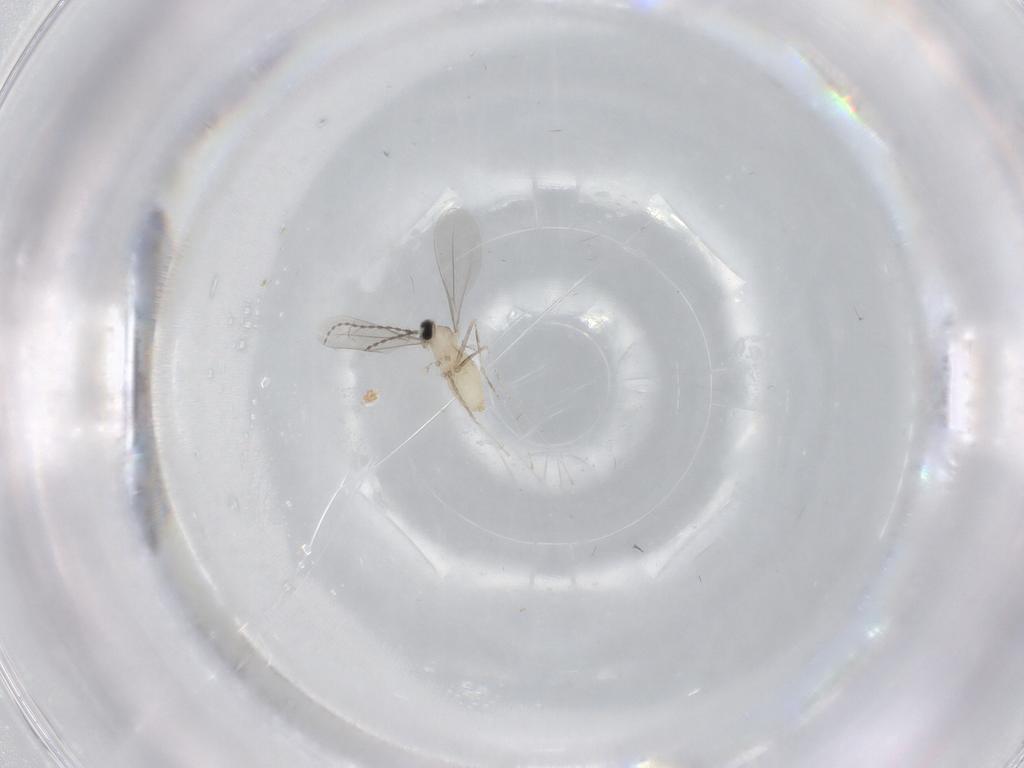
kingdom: Animalia
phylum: Arthropoda
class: Insecta
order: Diptera
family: Cecidomyiidae
